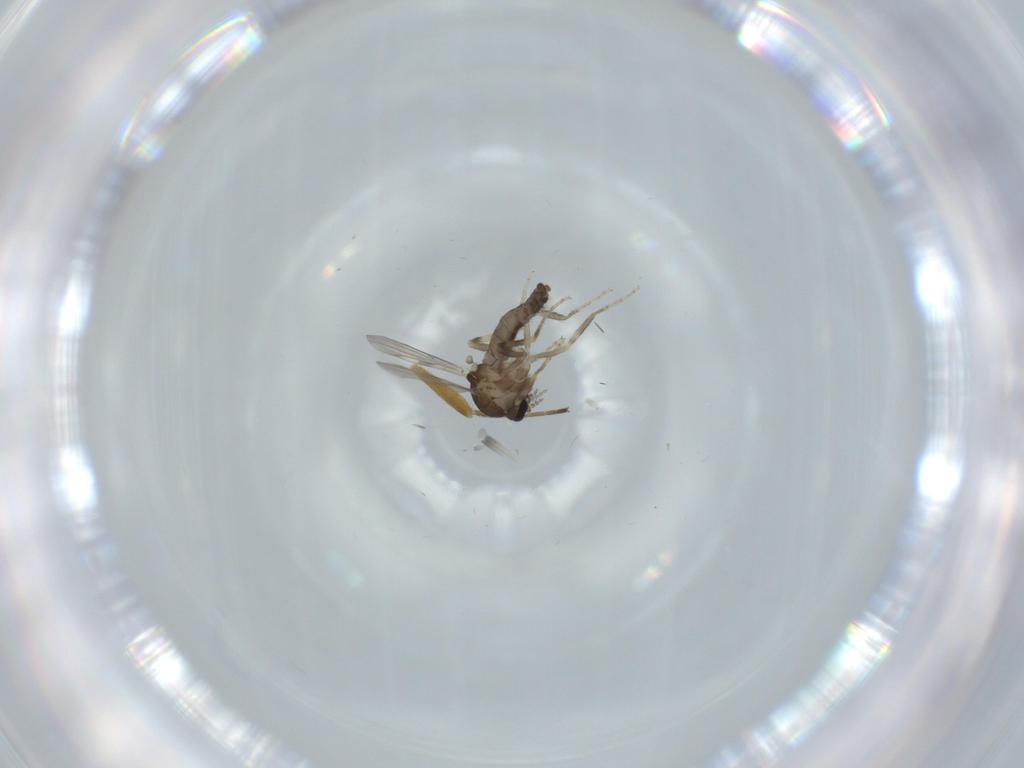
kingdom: Animalia
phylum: Arthropoda
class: Insecta
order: Diptera
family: Ceratopogonidae
